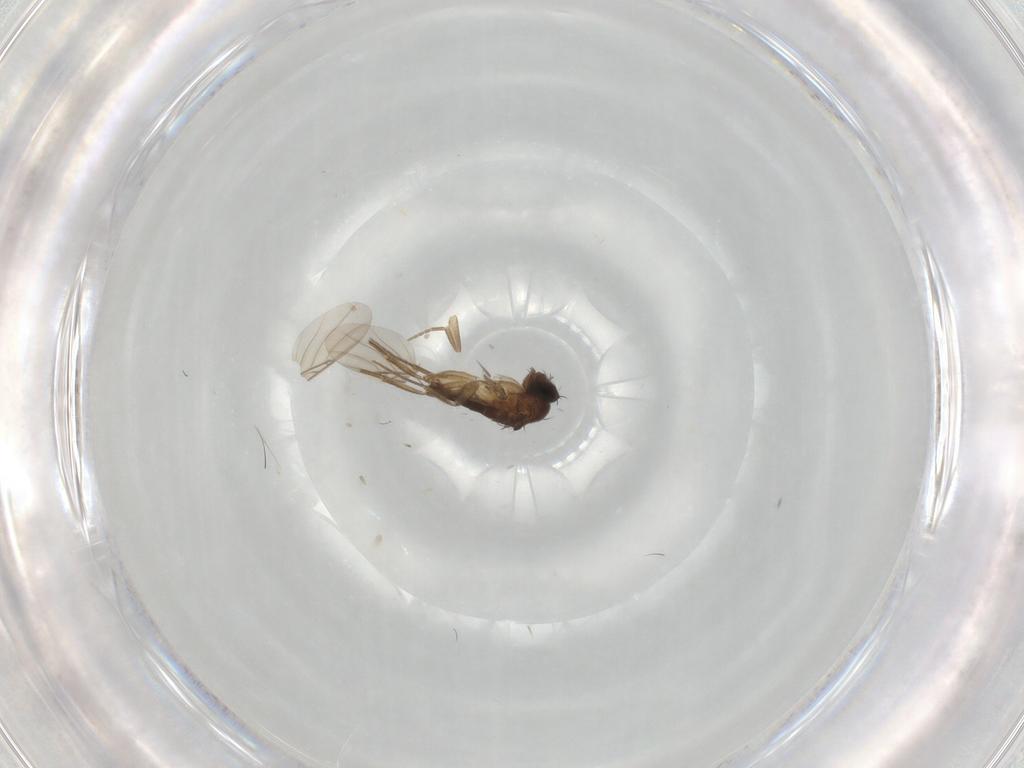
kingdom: Animalia
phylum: Arthropoda
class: Insecta
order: Diptera
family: Phoridae
